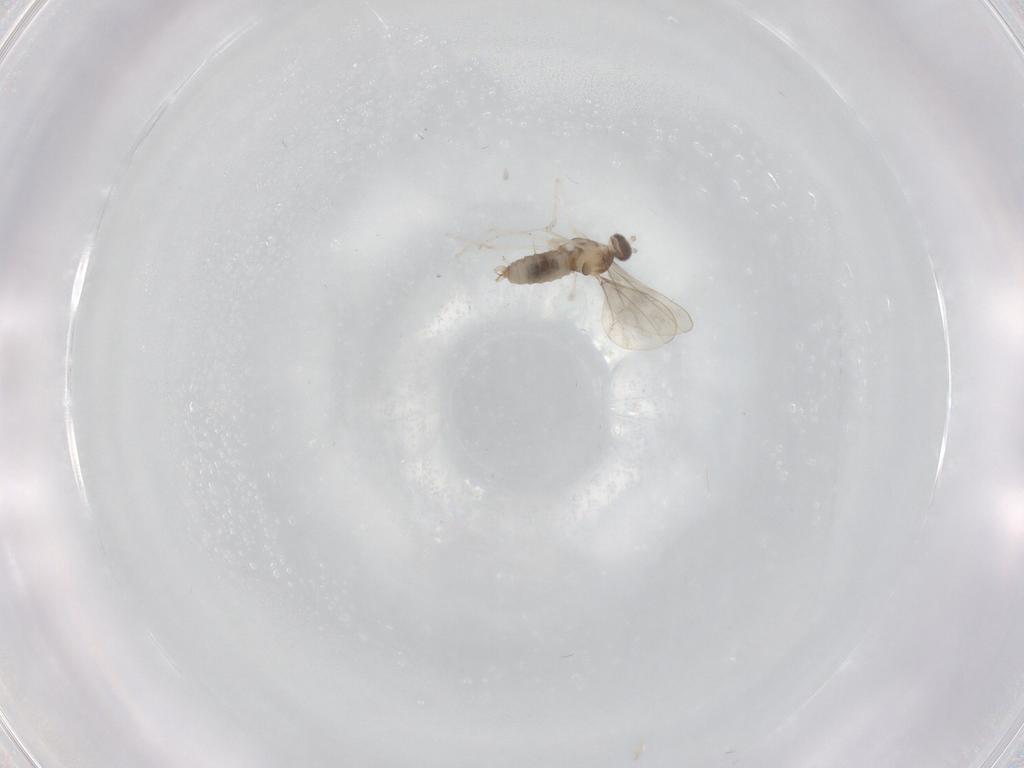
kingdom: Animalia
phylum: Arthropoda
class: Insecta
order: Diptera
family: Cecidomyiidae
